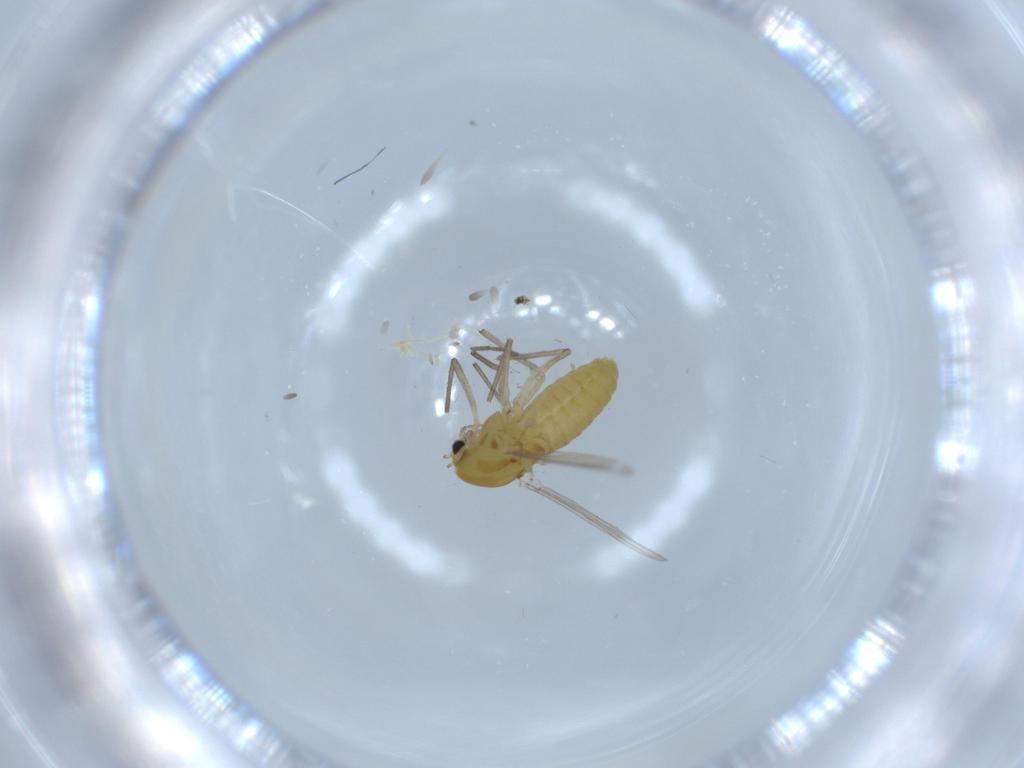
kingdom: Animalia
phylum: Arthropoda
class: Insecta
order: Diptera
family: Chironomidae
